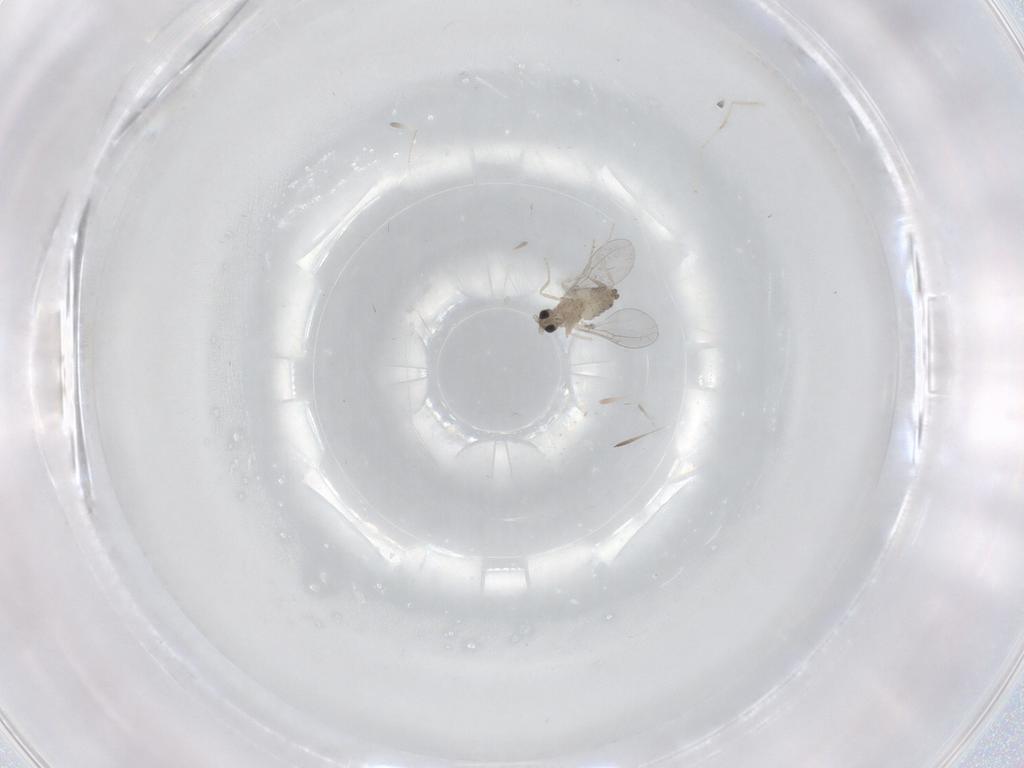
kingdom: Animalia
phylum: Arthropoda
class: Insecta
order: Diptera
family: Cecidomyiidae
